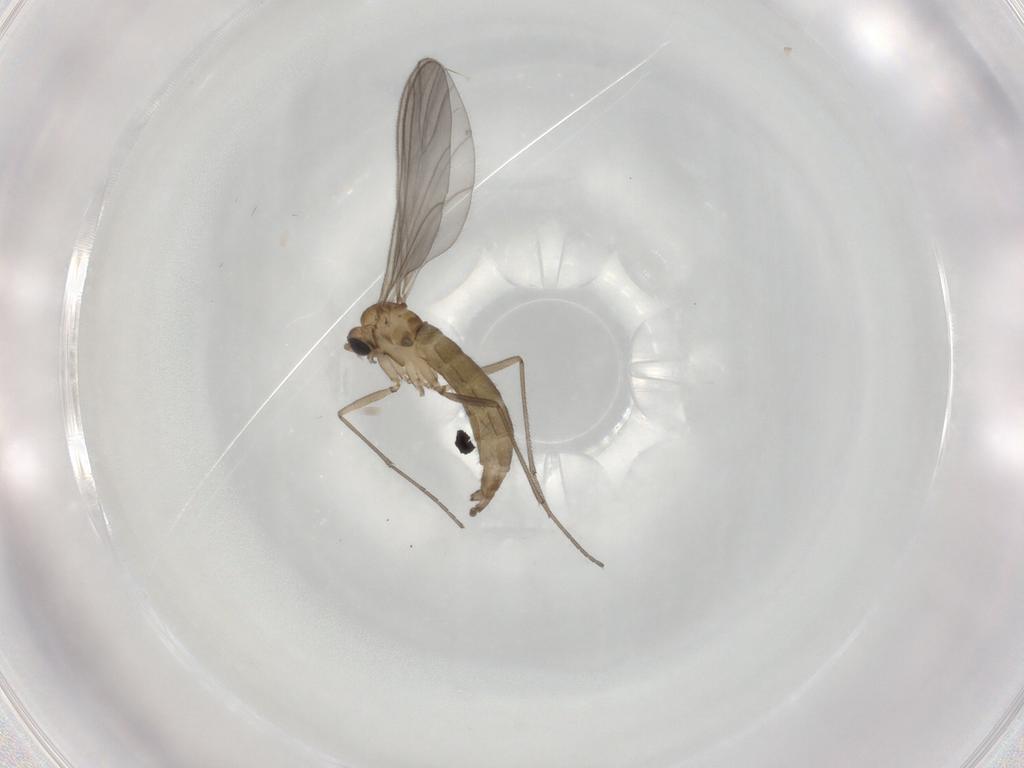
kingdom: Animalia
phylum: Arthropoda
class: Insecta
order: Diptera
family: Sciaridae
